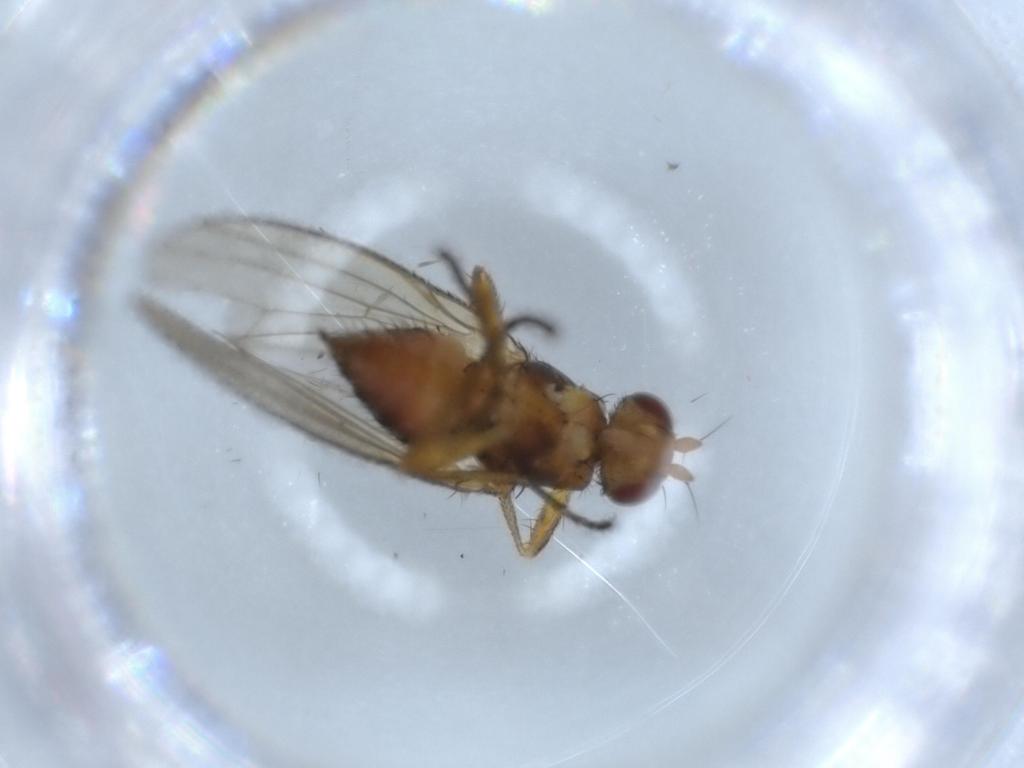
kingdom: Animalia
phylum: Arthropoda
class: Insecta
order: Diptera
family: Heleomyzidae
